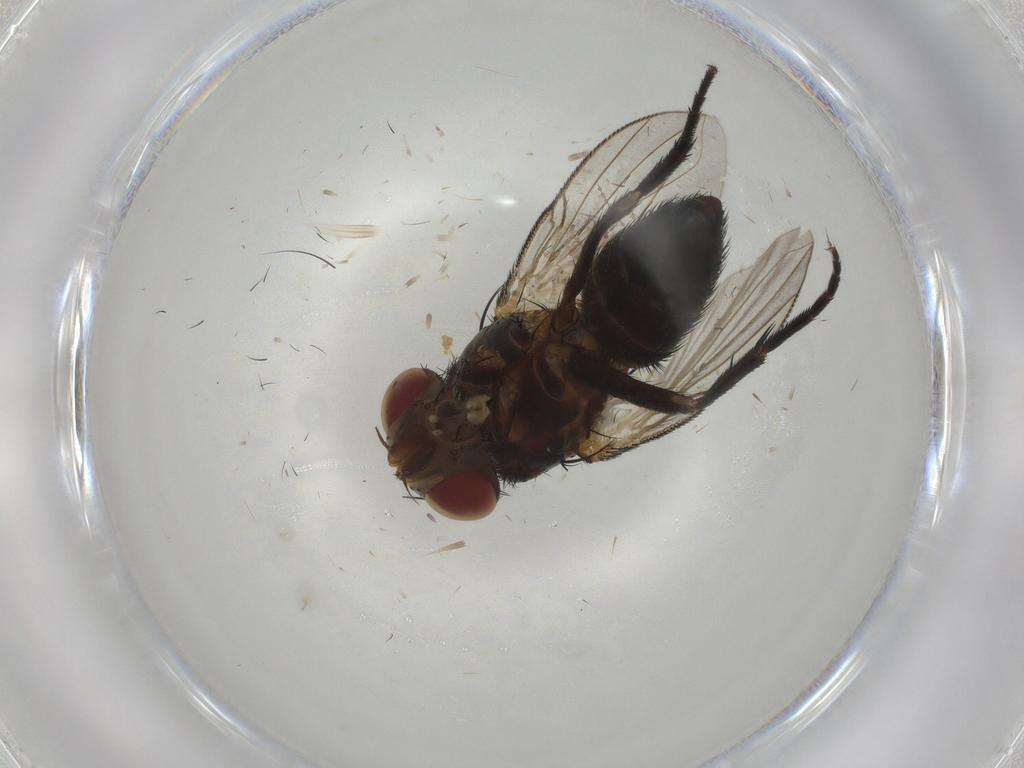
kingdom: Animalia
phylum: Arthropoda
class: Insecta
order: Diptera
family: Tachinidae
